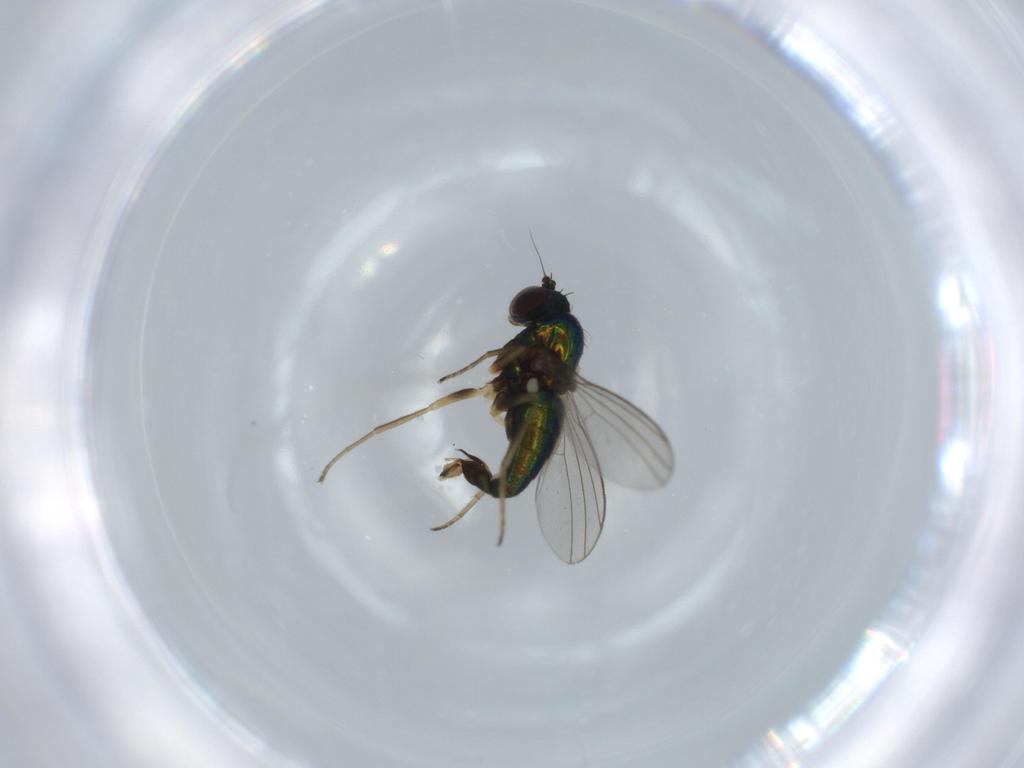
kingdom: Animalia
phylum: Arthropoda
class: Insecta
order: Diptera
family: Dolichopodidae
